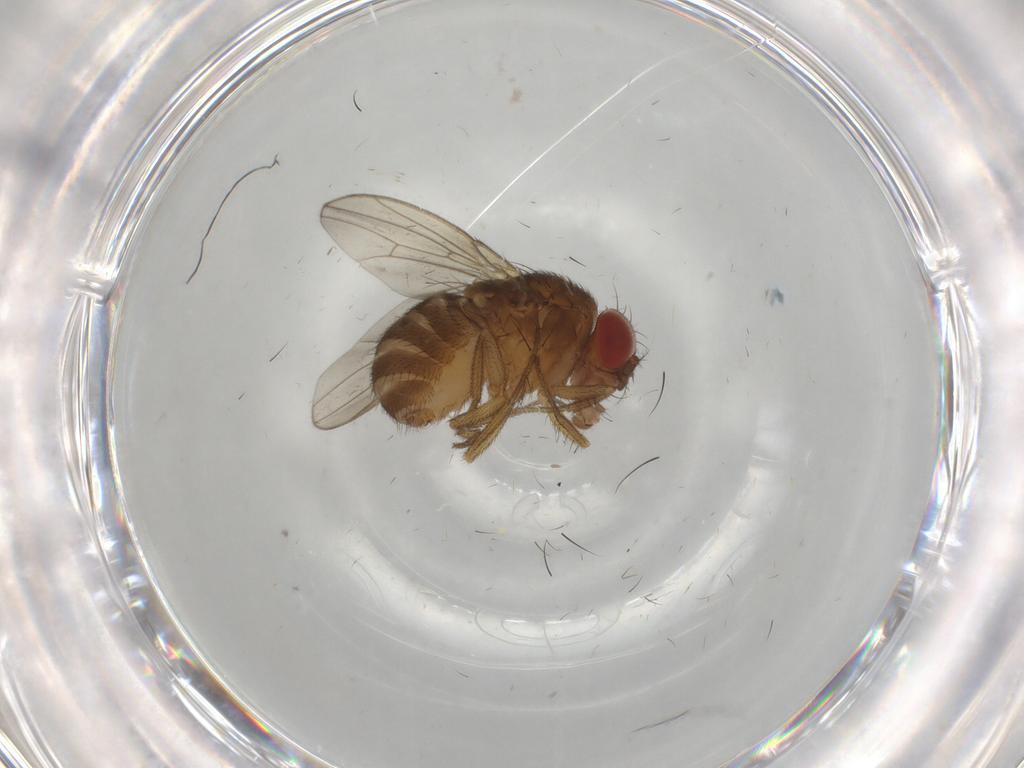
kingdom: Animalia
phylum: Arthropoda
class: Insecta
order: Diptera
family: Drosophilidae
